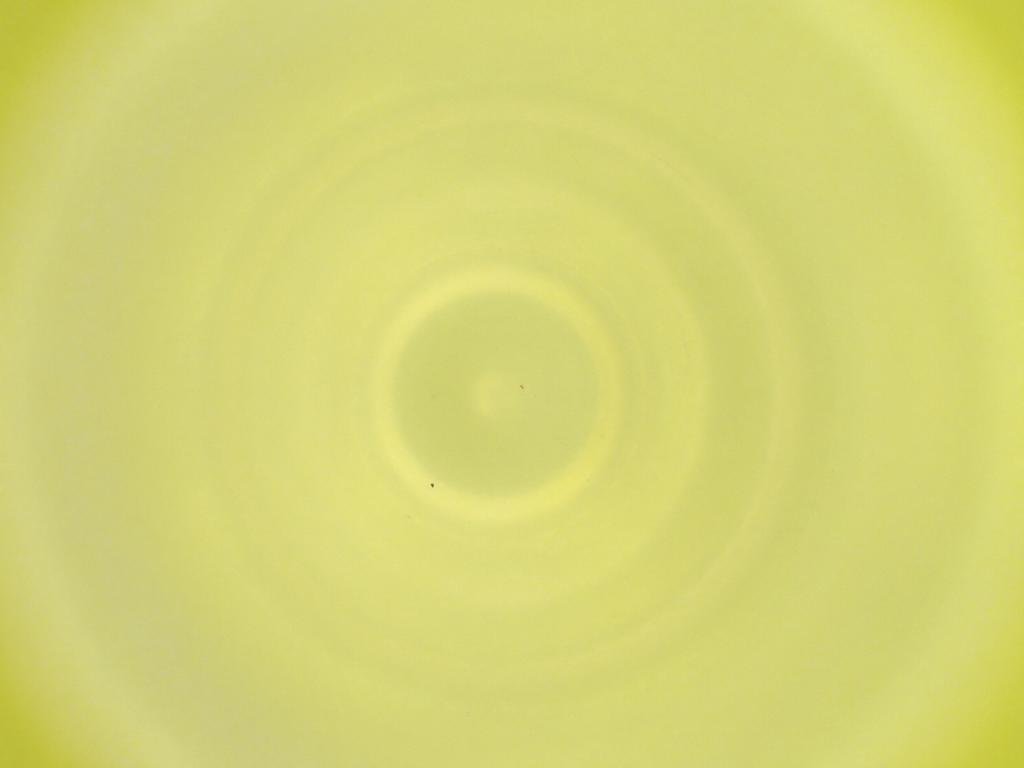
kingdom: Animalia
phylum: Arthropoda
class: Insecta
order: Diptera
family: Cecidomyiidae
